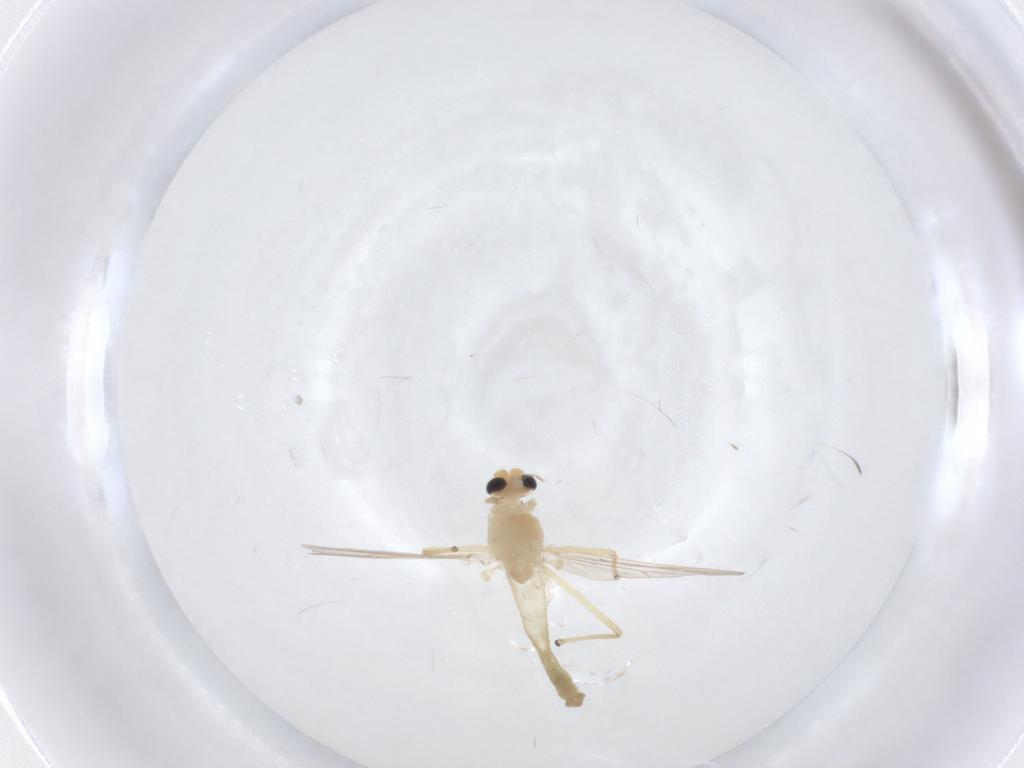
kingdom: Animalia
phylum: Arthropoda
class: Insecta
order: Diptera
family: Chironomidae
